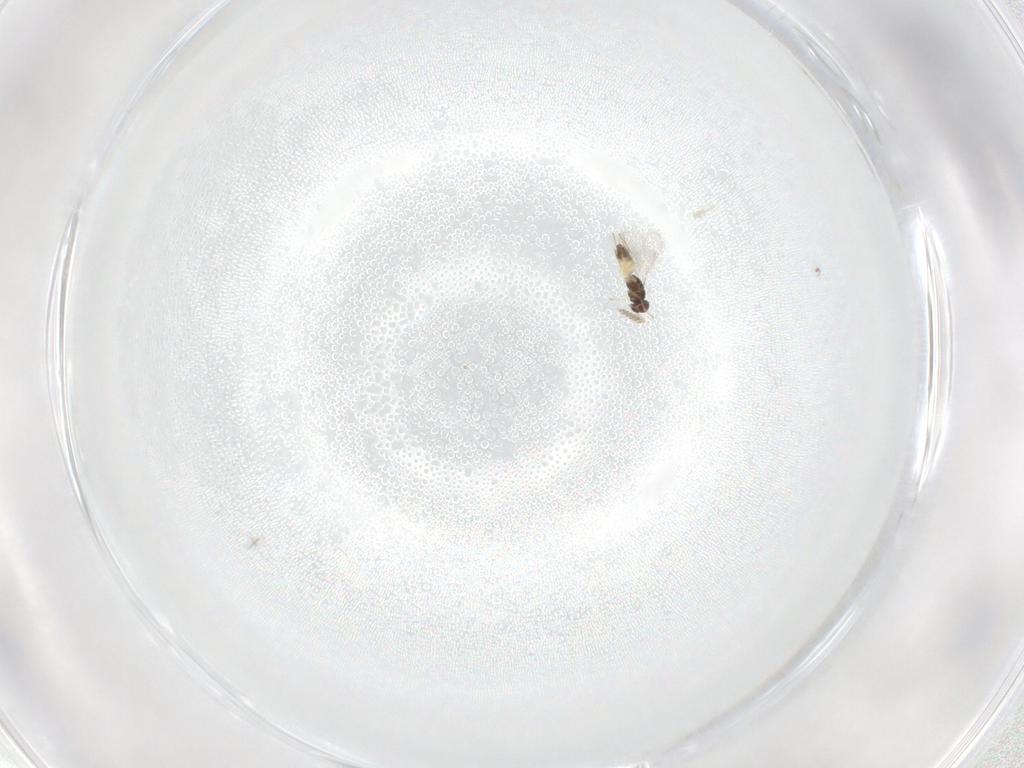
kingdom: Animalia
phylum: Arthropoda
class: Insecta
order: Hymenoptera
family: Eulophidae
